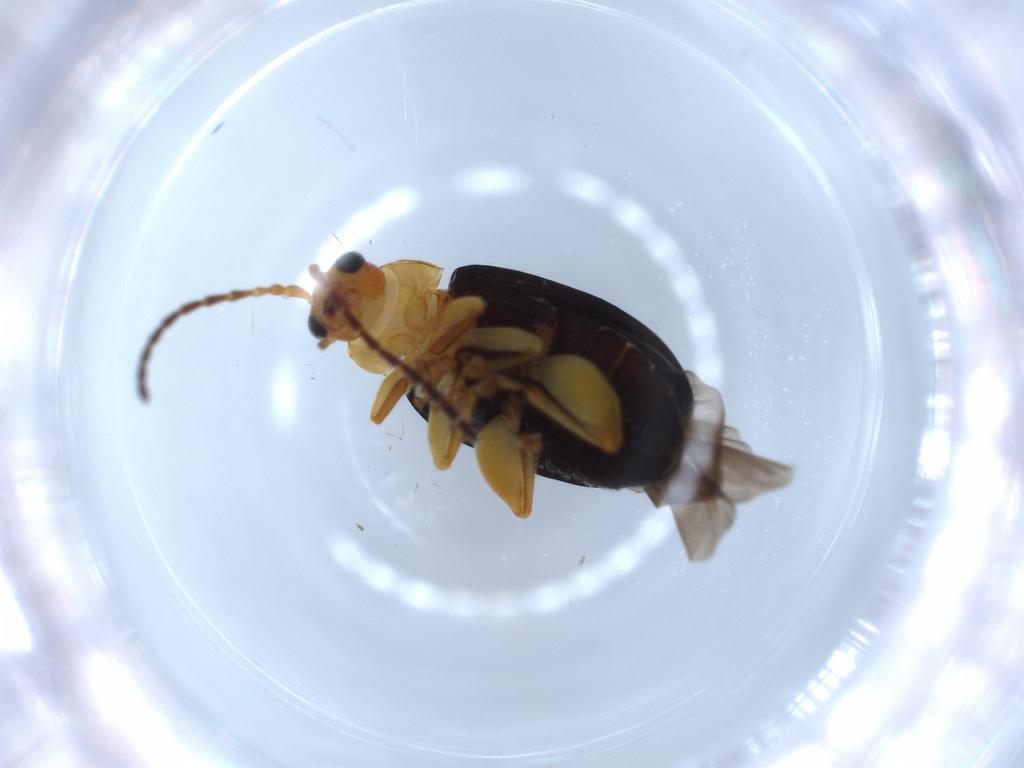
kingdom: Animalia
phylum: Arthropoda
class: Insecta
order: Coleoptera
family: Chrysomelidae
